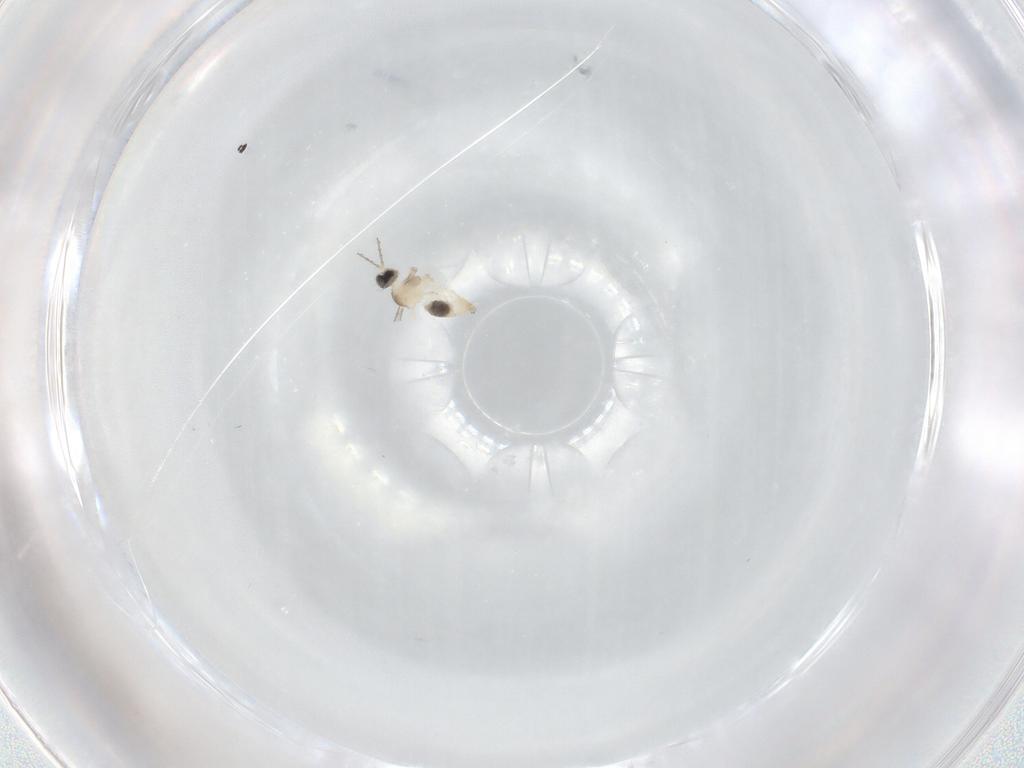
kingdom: Animalia
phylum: Arthropoda
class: Insecta
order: Diptera
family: Cecidomyiidae
